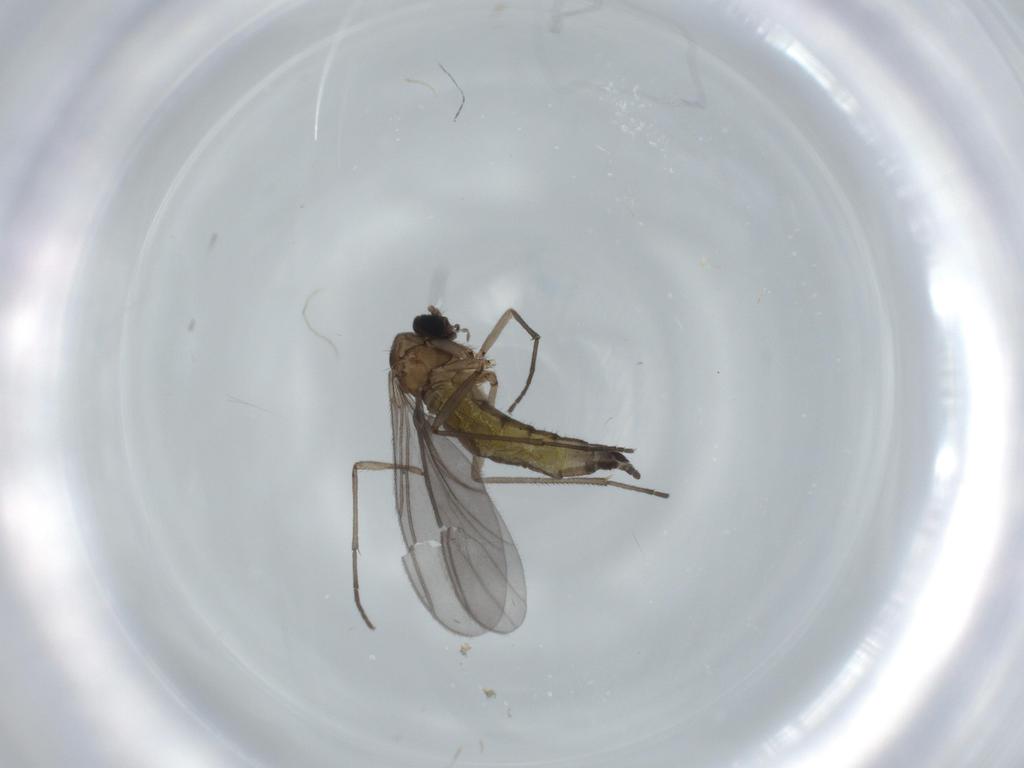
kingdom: Animalia
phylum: Arthropoda
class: Insecta
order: Diptera
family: Sciaridae
